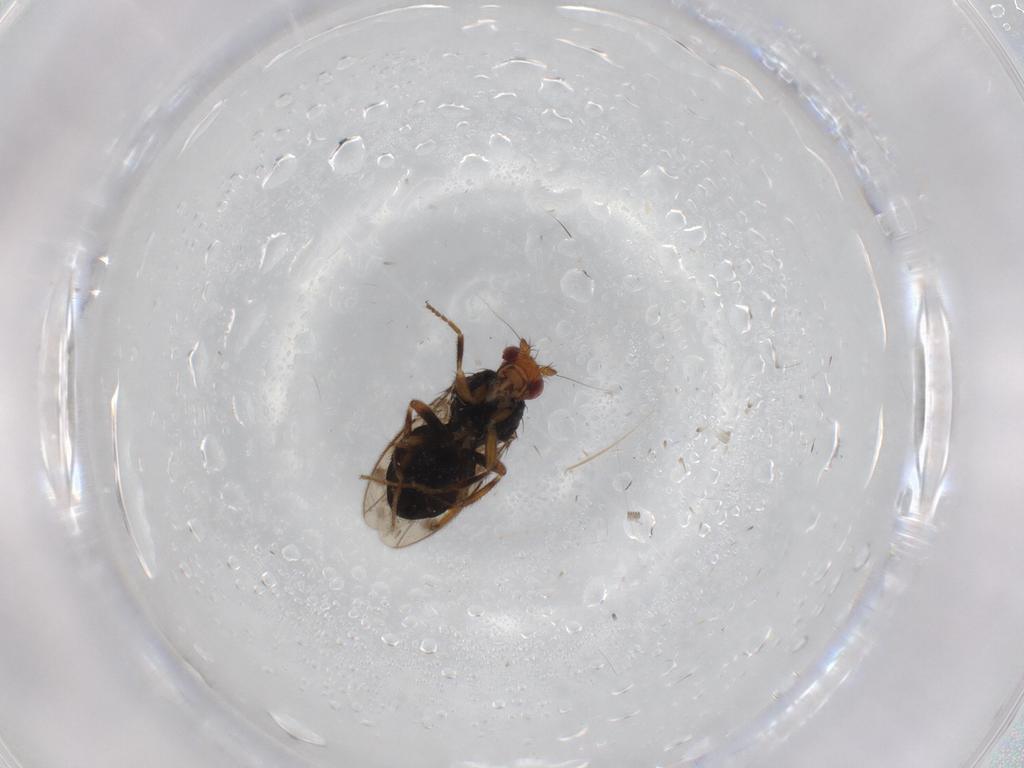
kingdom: Animalia
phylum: Arthropoda
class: Insecta
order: Diptera
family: Sphaeroceridae
